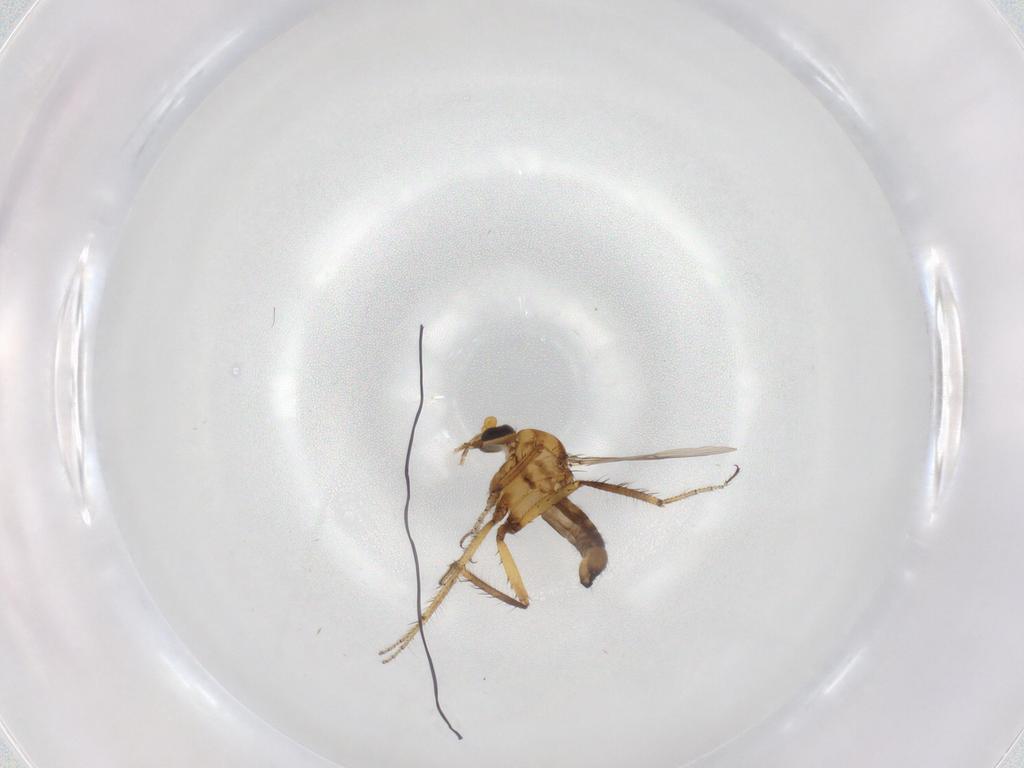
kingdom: Animalia
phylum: Arthropoda
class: Insecta
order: Diptera
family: Ceratopogonidae
